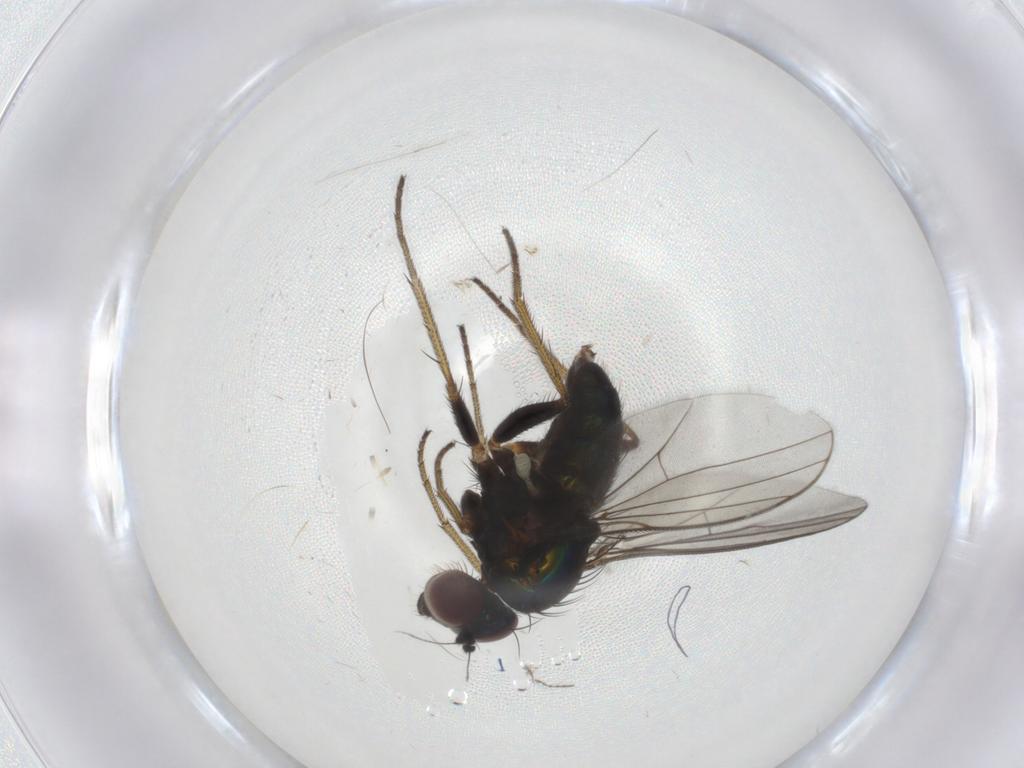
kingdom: Animalia
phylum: Arthropoda
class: Insecta
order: Diptera
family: Chironomidae
